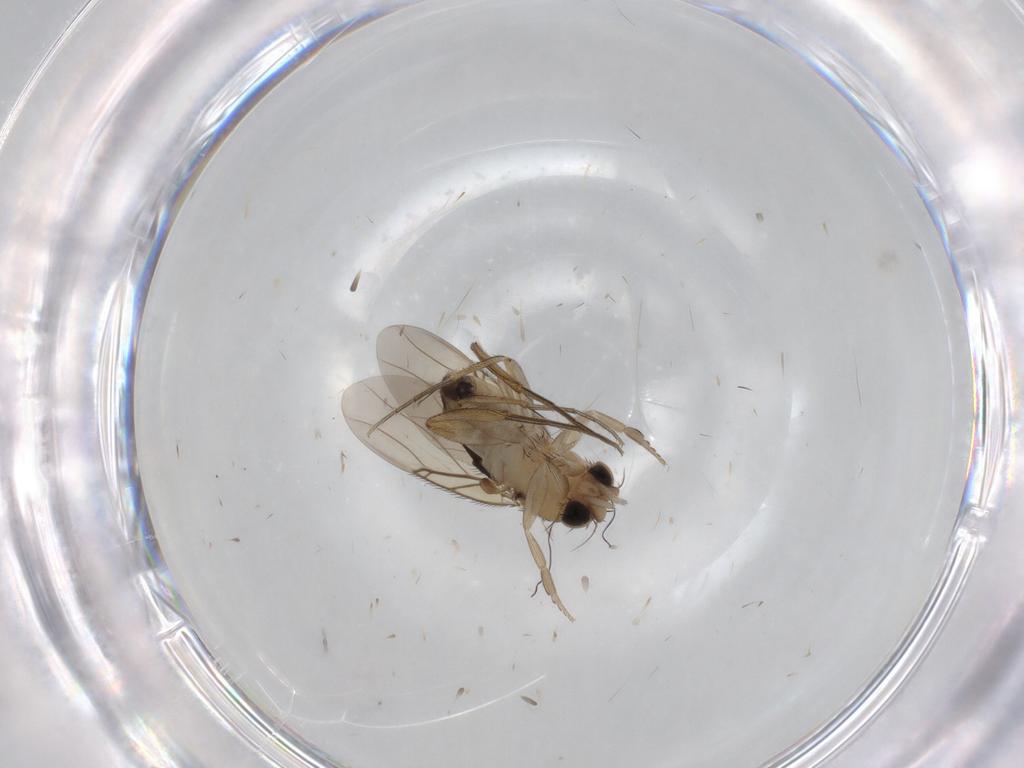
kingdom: Animalia
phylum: Arthropoda
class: Insecta
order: Diptera
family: Phoridae
